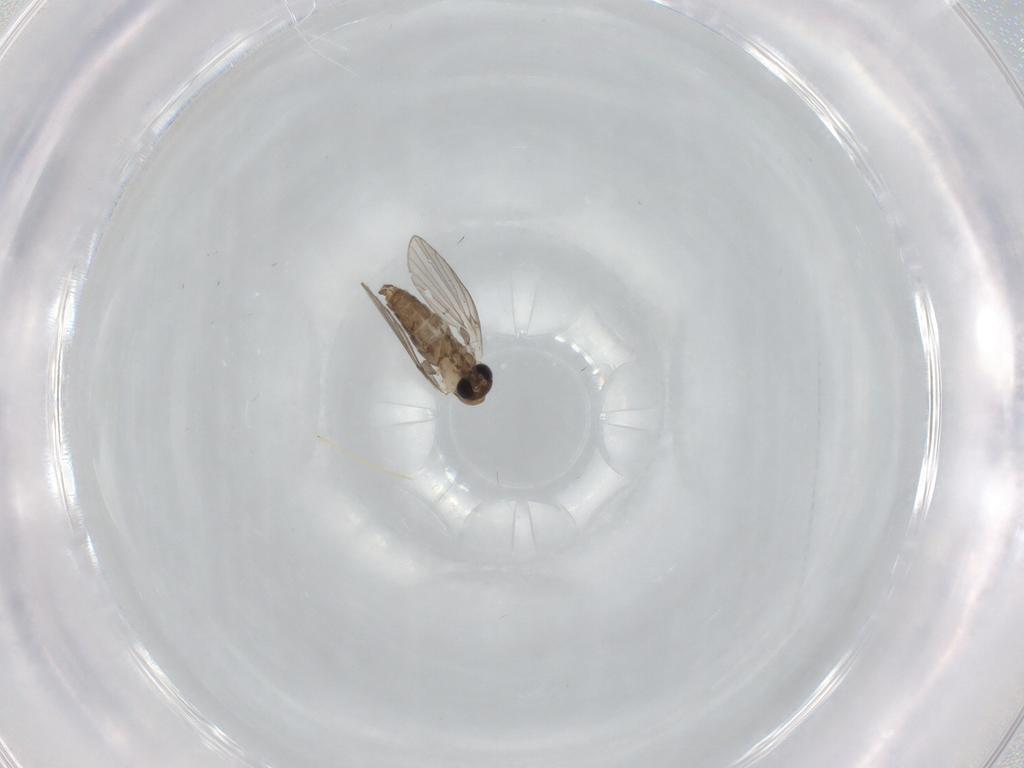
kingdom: Animalia
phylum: Arthropoda
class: Insecta
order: Diptera
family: Psychodidae
